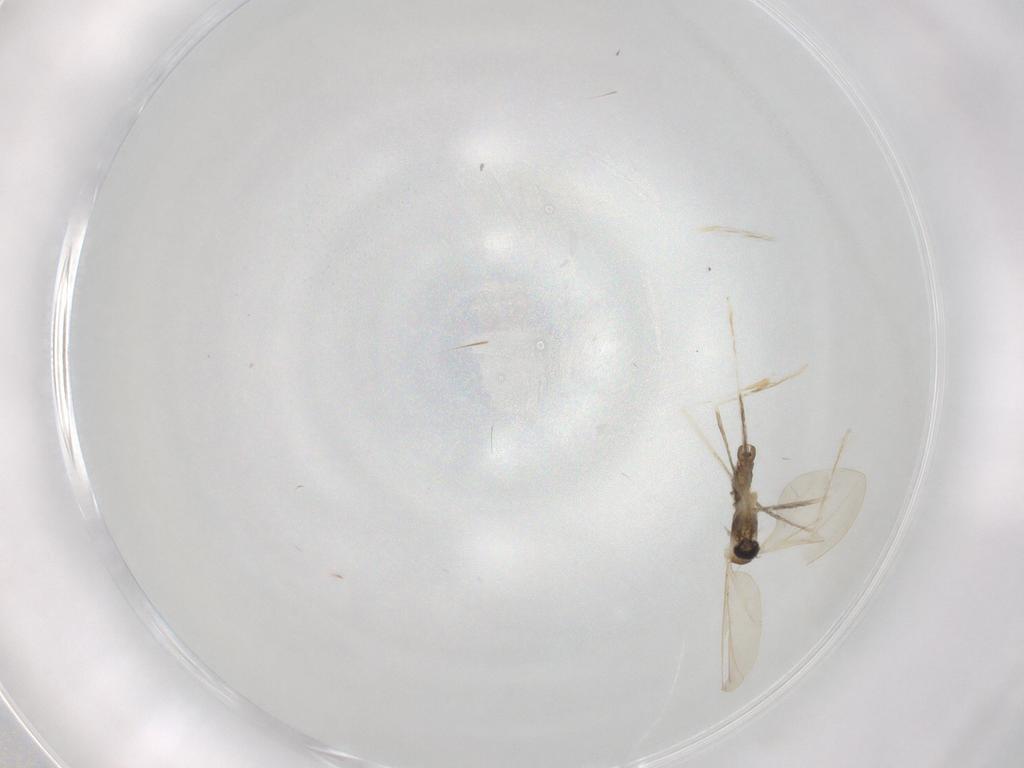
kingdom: Animalia
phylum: Arthropoda
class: Insecta
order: Diptera
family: Cecidomyiidae
